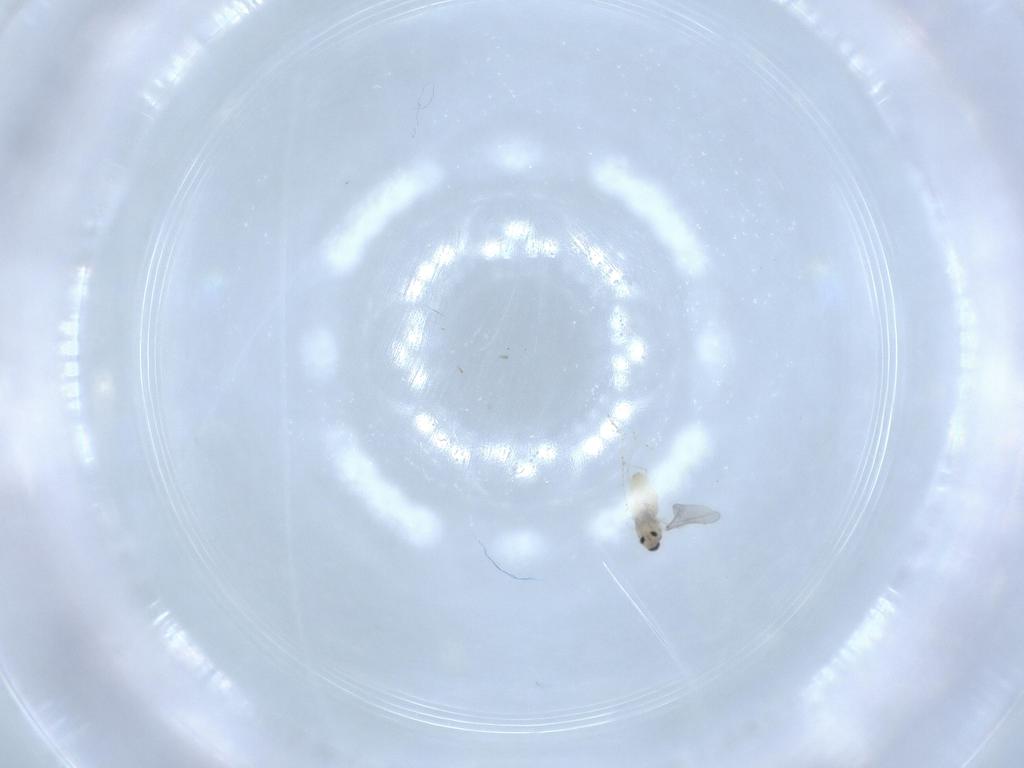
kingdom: Animalia
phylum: Arthropoda
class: Insecta
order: Diptera
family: Cecidomyiidae
